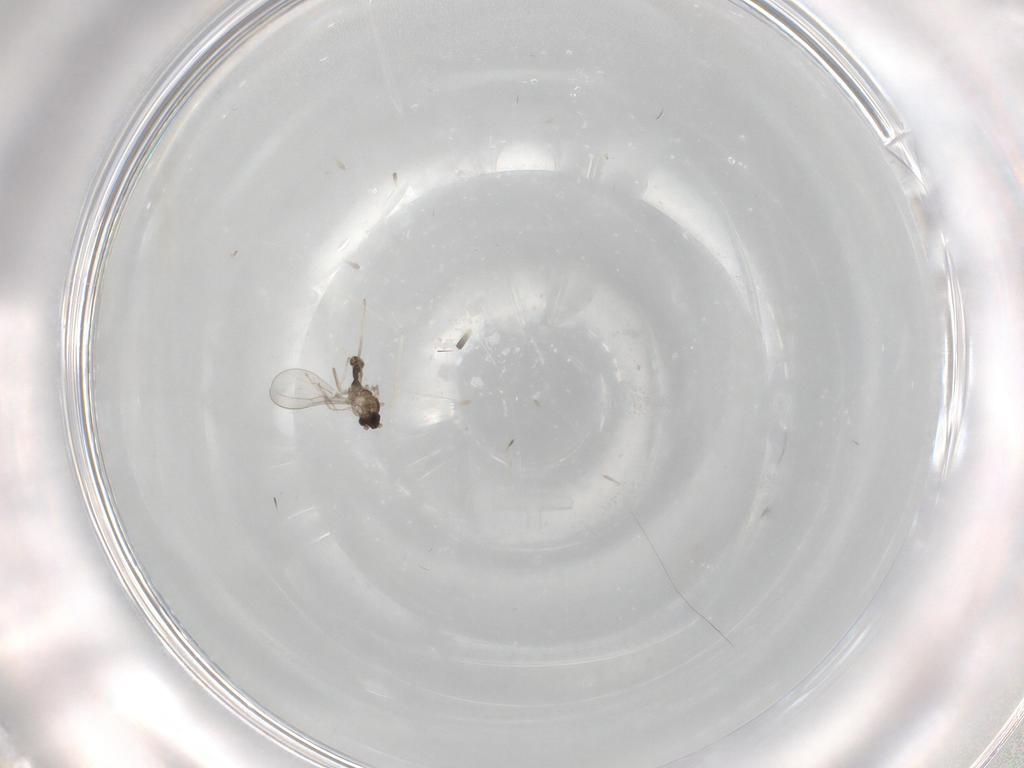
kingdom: Animalia
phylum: Arthropoda
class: Insecta
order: Diptera
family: Cecidomyiidae
